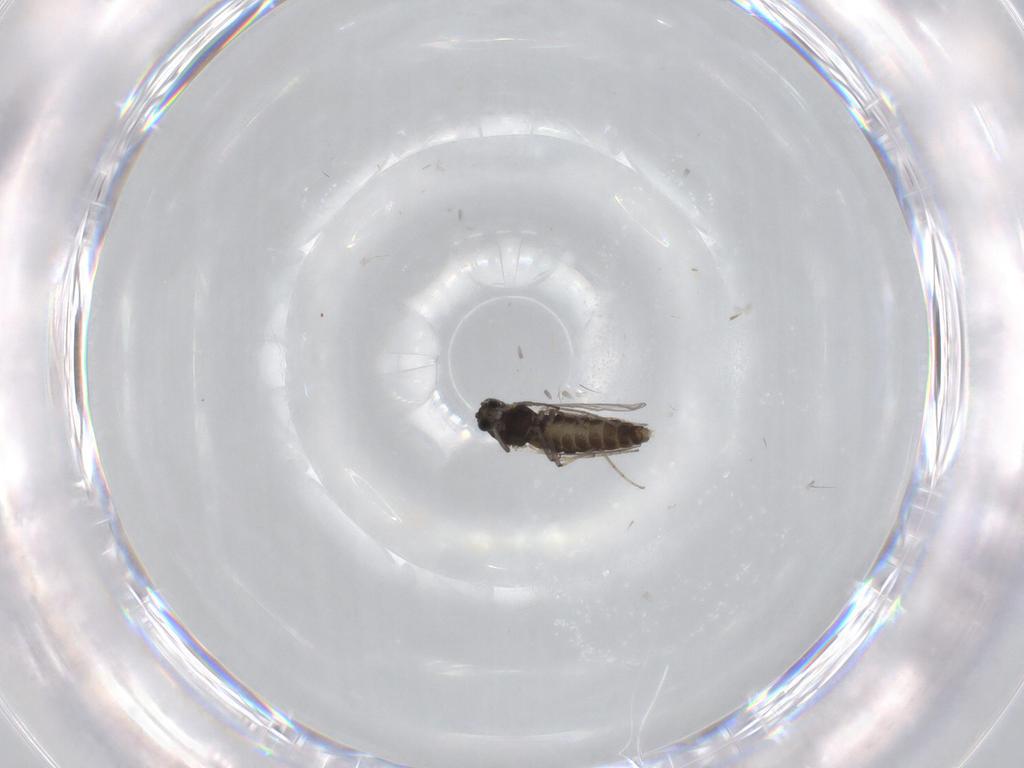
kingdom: Animalia
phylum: Arthropoda
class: Insecta
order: Diptera
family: Chironomidae
